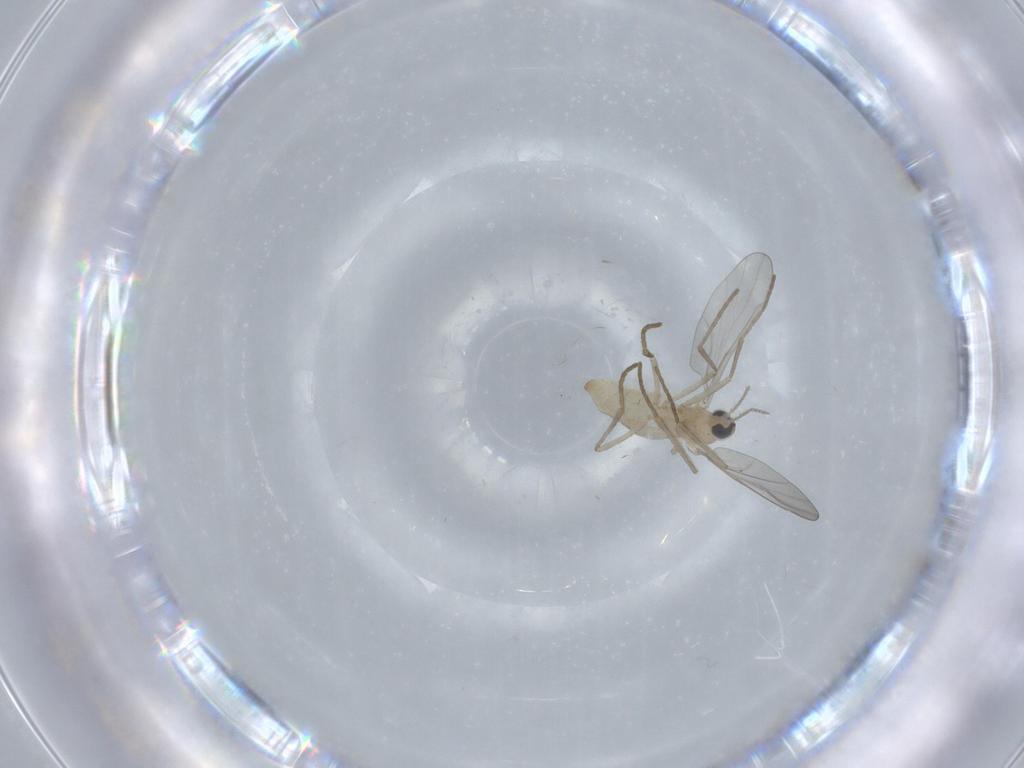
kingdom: Animalia
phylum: Arthropoda
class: Insecta
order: Diptera
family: Cecidomyiidae
